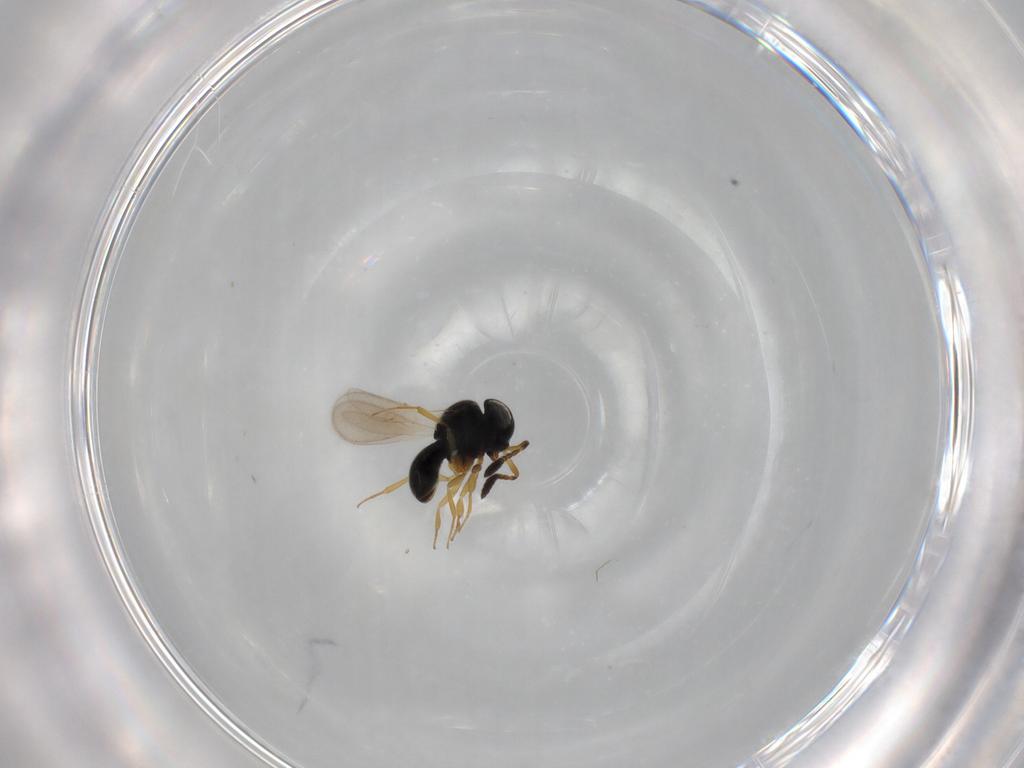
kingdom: Animalia
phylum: Arthropoda
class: Insecta
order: Hymenoptera
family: Scelionidae
